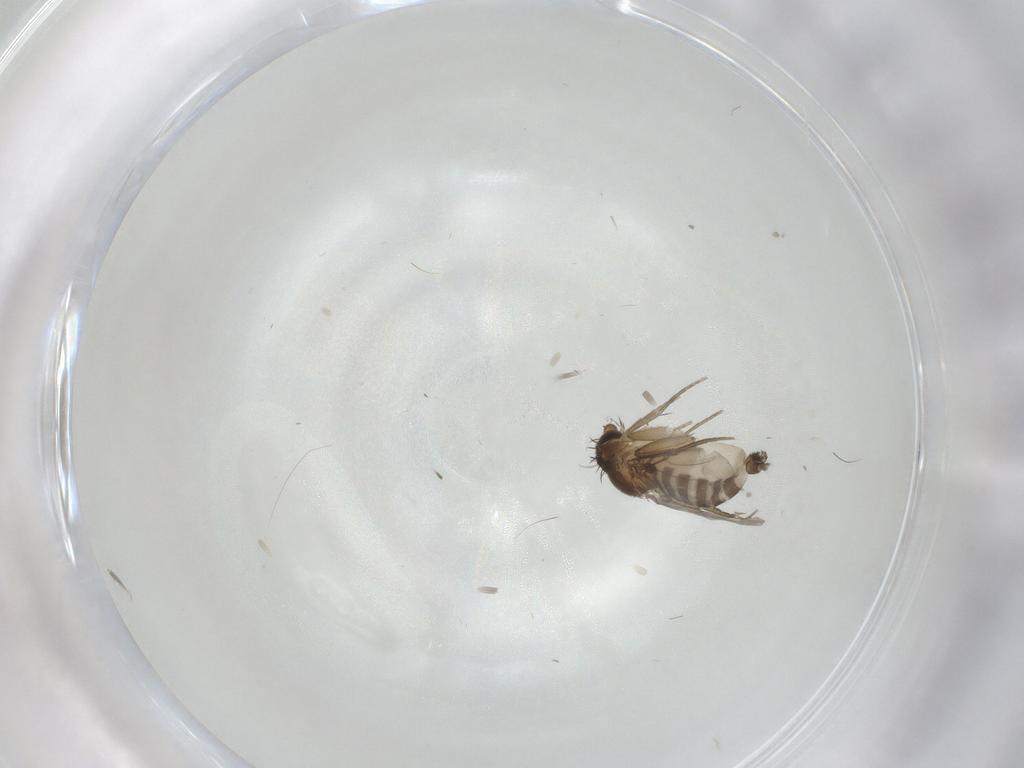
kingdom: Animalia
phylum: Arthropoda
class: Insecta
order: Diptera
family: Phoridae
